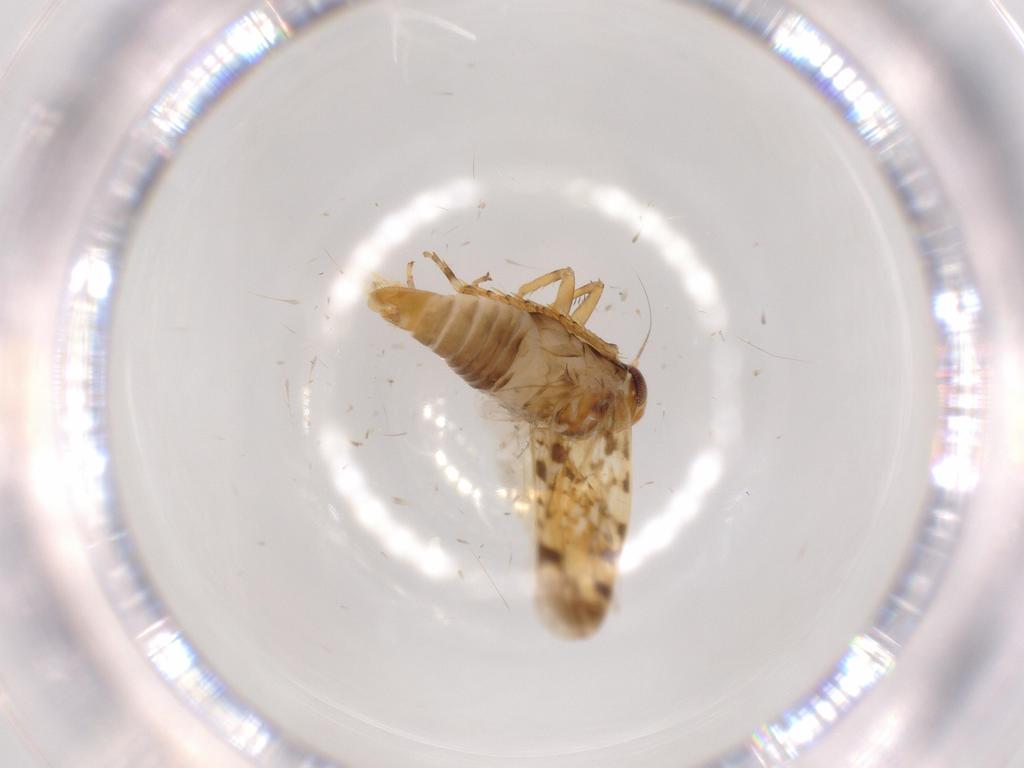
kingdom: Animalia
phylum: Arthropoda
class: Insecta
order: Hemiptera
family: Cicadellidae
